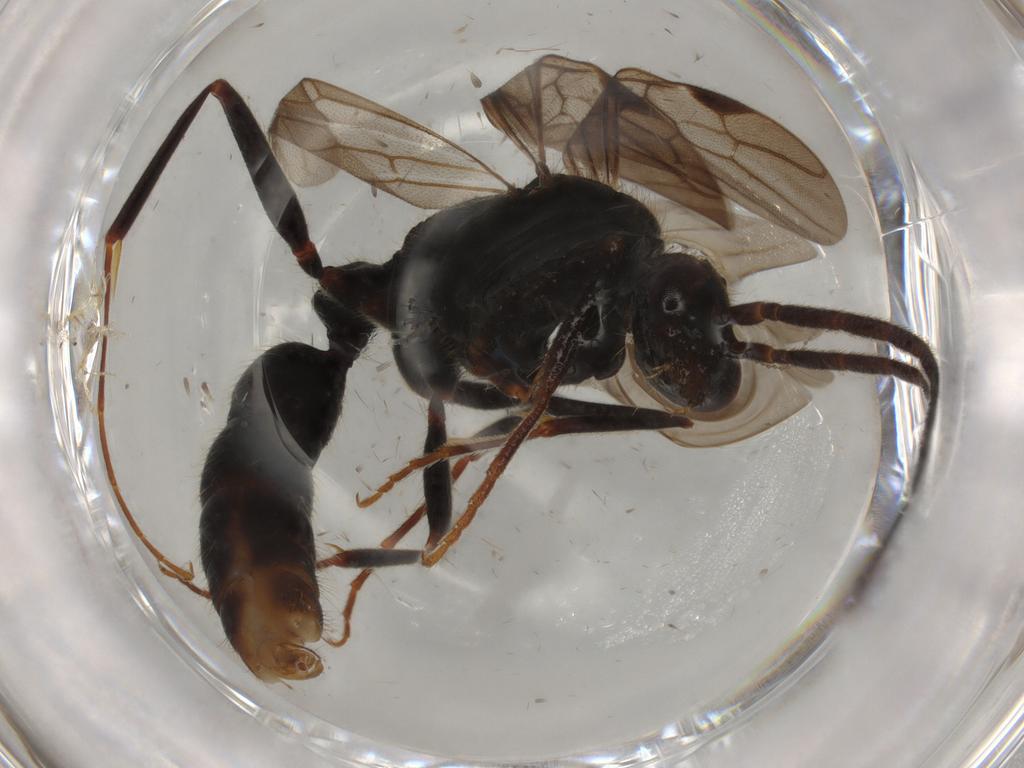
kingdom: Animalia
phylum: Arthropoda
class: Insecta
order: Hymenoptera
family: Formicidae
